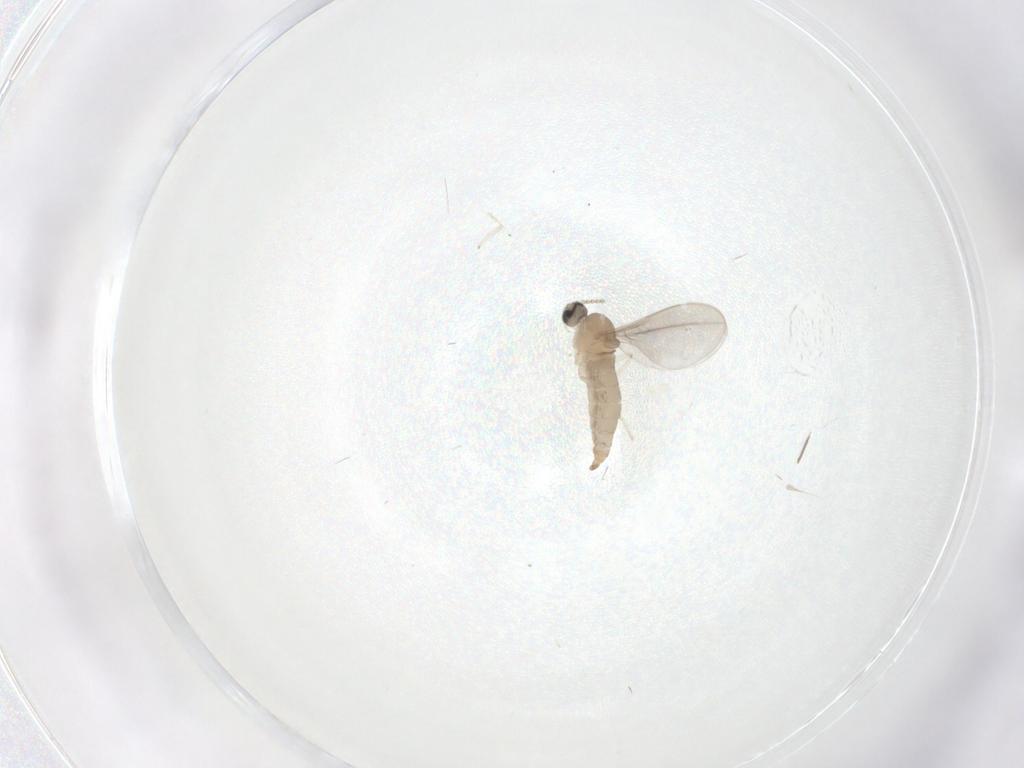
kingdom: Animalia
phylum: Arthropoda
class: Insecta
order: Diptera
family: Cecidomyiidae
